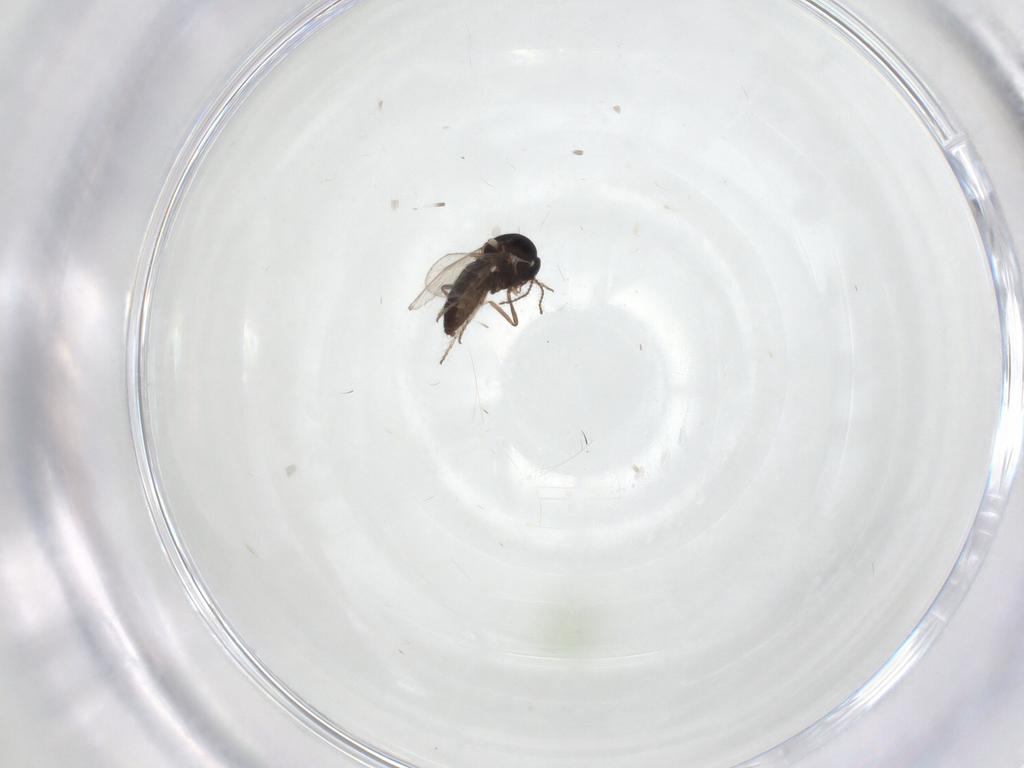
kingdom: Animalia
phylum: Arthropoda
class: Insecta
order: Diptera
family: Ceratopogonidae
